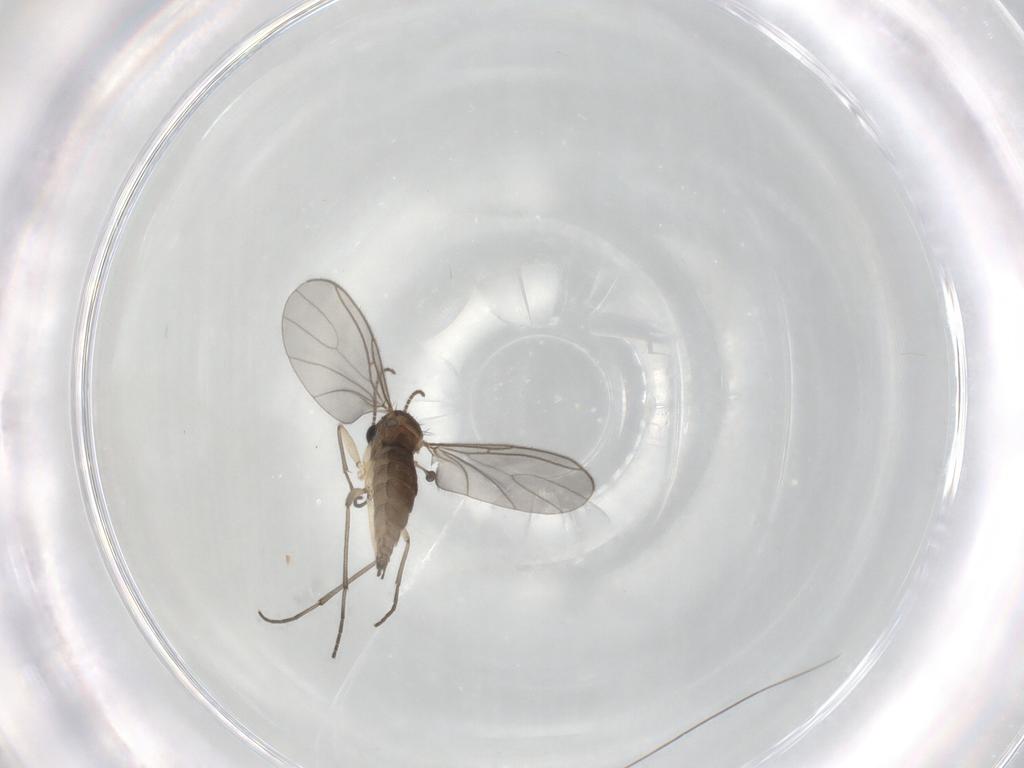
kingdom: Animalia
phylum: Arthropoda
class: Insecta
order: Diptera
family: Sciaridae
